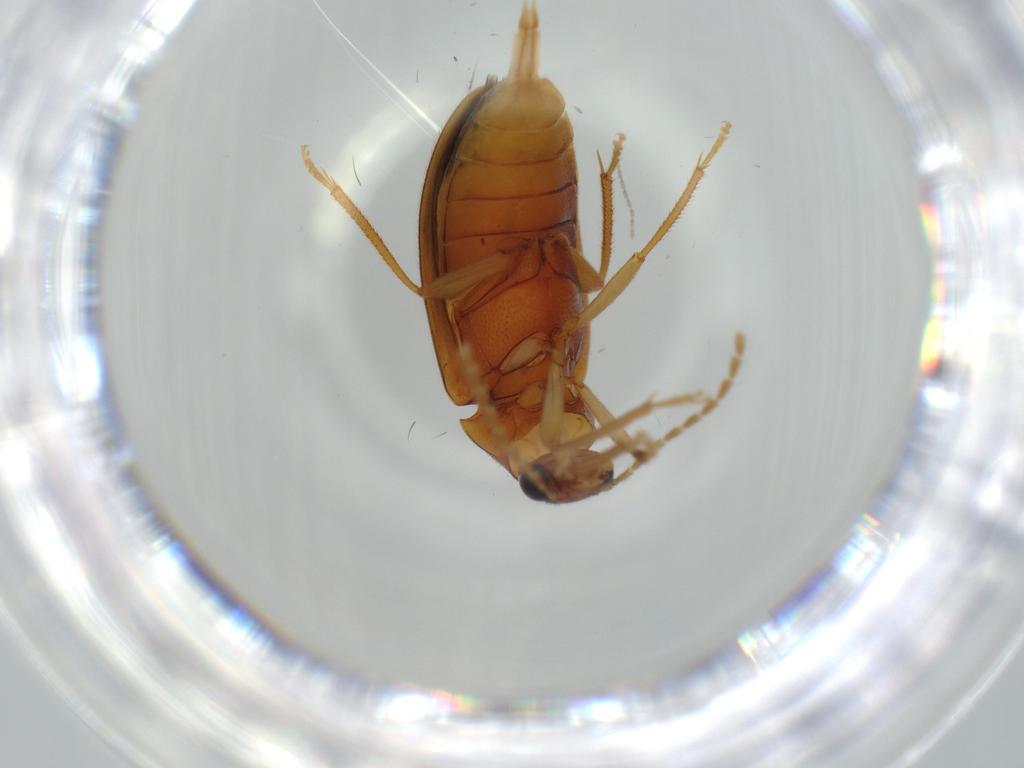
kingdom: Animalia
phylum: Arthropoda
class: Insecta
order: Coleoptera
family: Ptilodactylidae
